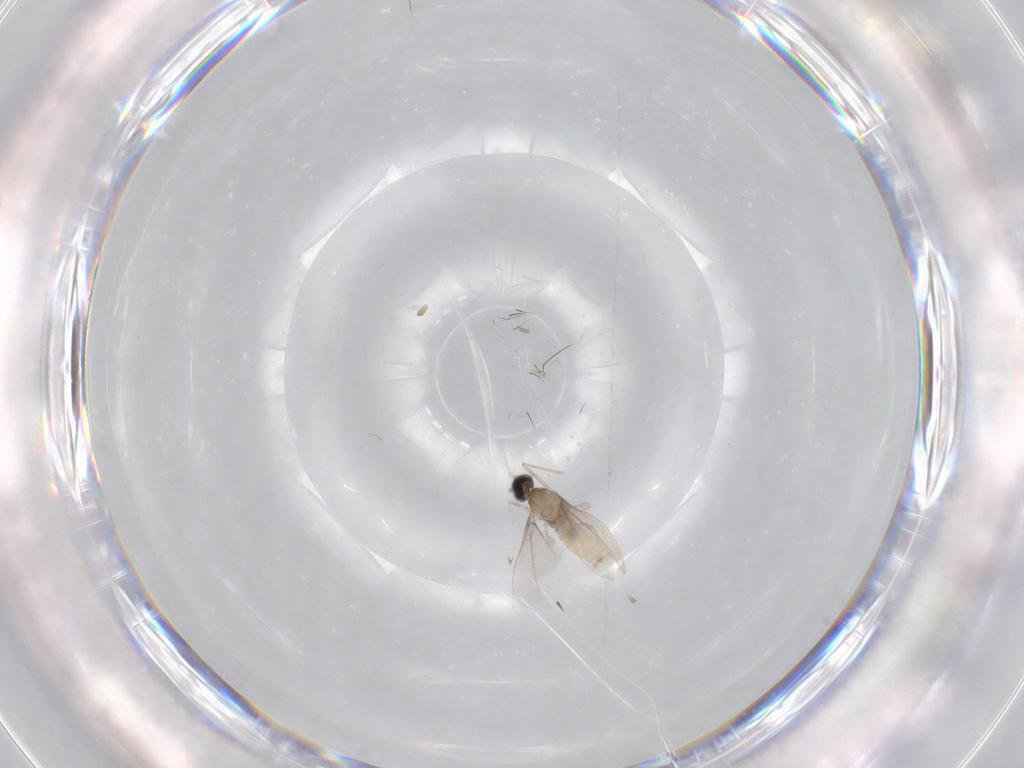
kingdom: Animalia
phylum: Arthropoda
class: Insecta
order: Diptera
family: Dolichopodidae
